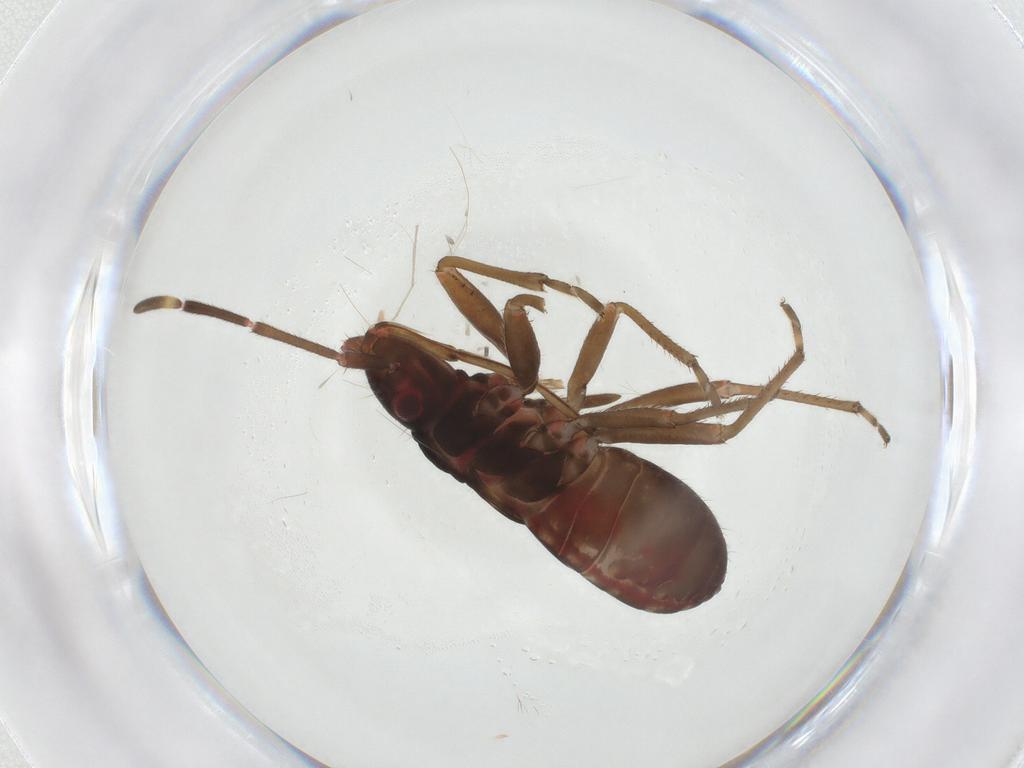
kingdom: Animalia
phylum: Arthropoda
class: Insecta
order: Hemiptera
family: Rhyparochromidae
